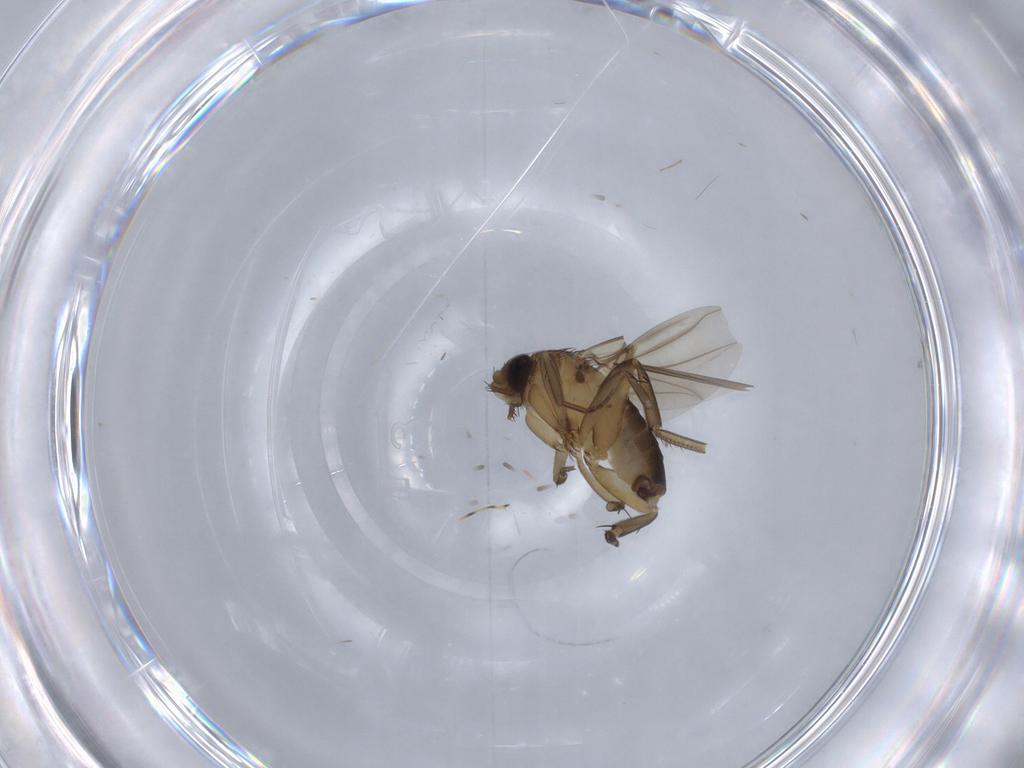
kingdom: Animalia
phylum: Arthropoda
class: Insecta
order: Diptera
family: Phoridae
